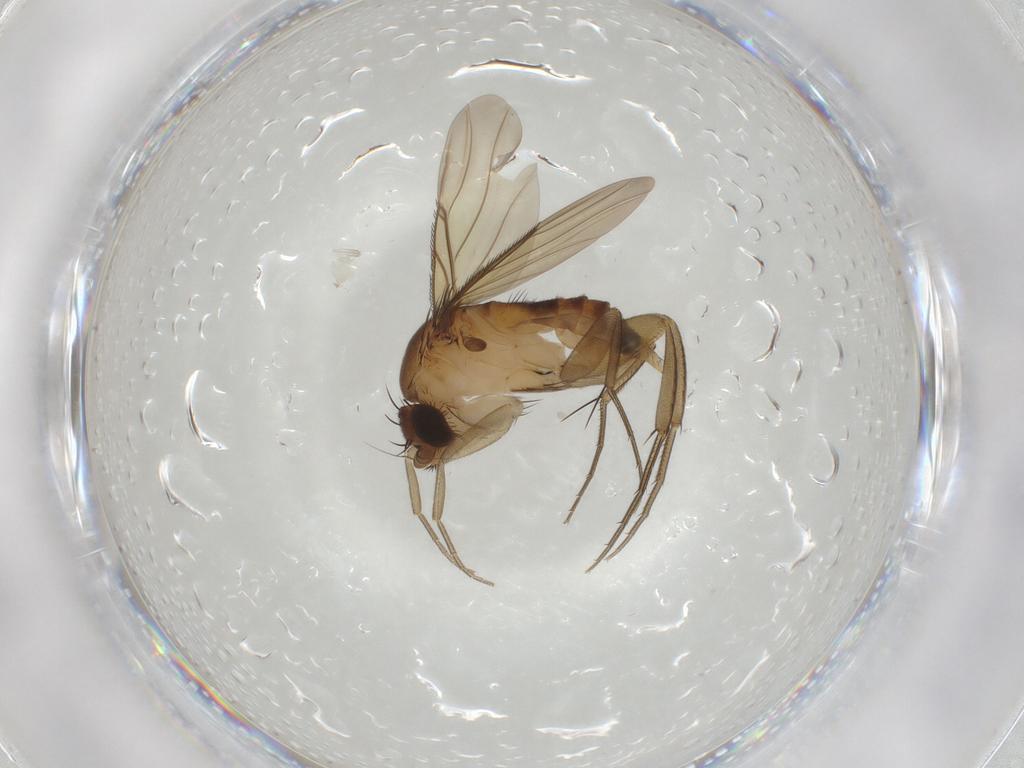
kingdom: Animalia
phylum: Arthropoda
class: Insecta
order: Diptera
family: Phoridae
